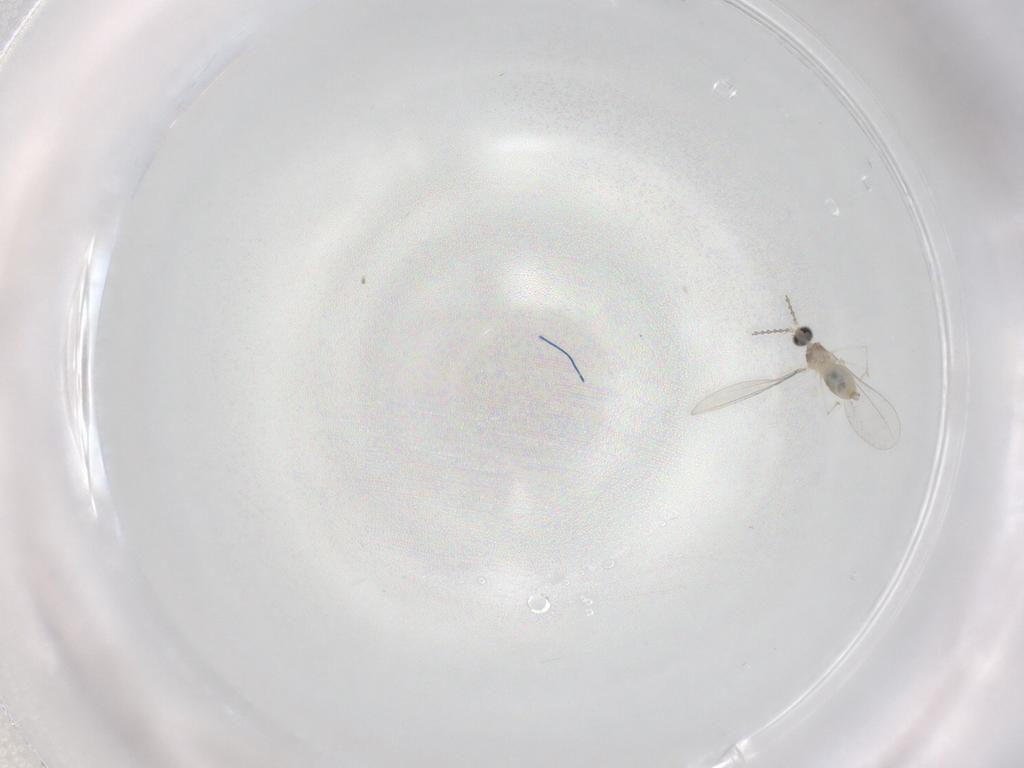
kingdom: Animalia
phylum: Arthropoda
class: Insecta
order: Diptera
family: Cecidomyiidae
